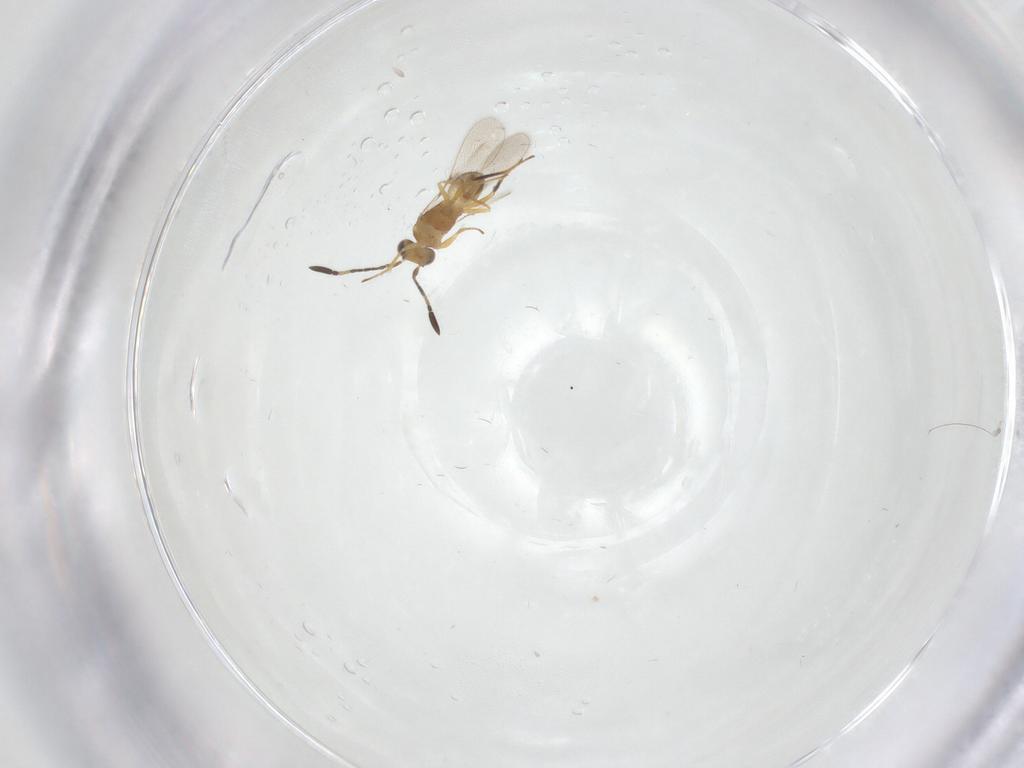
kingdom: Animalia
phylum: Arthropoda
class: Insecta
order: Hymenoptera
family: Mymaridae
